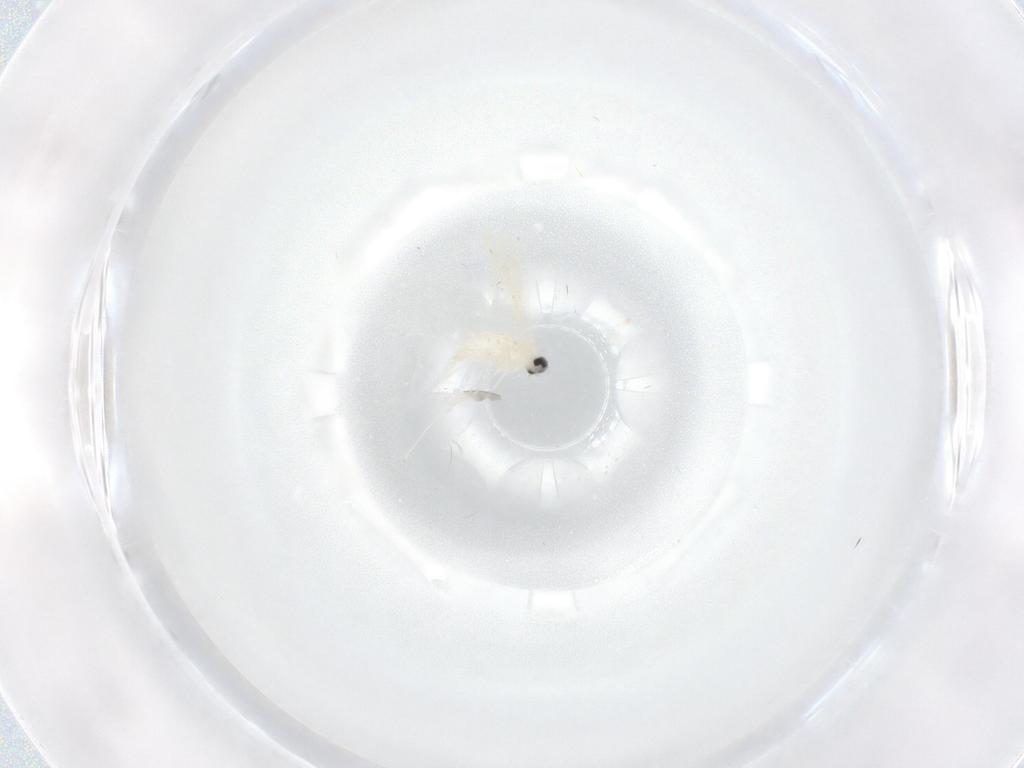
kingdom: Animalia
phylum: Arthropoda
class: Insecta
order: Diptera
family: Cecidomyiidae
